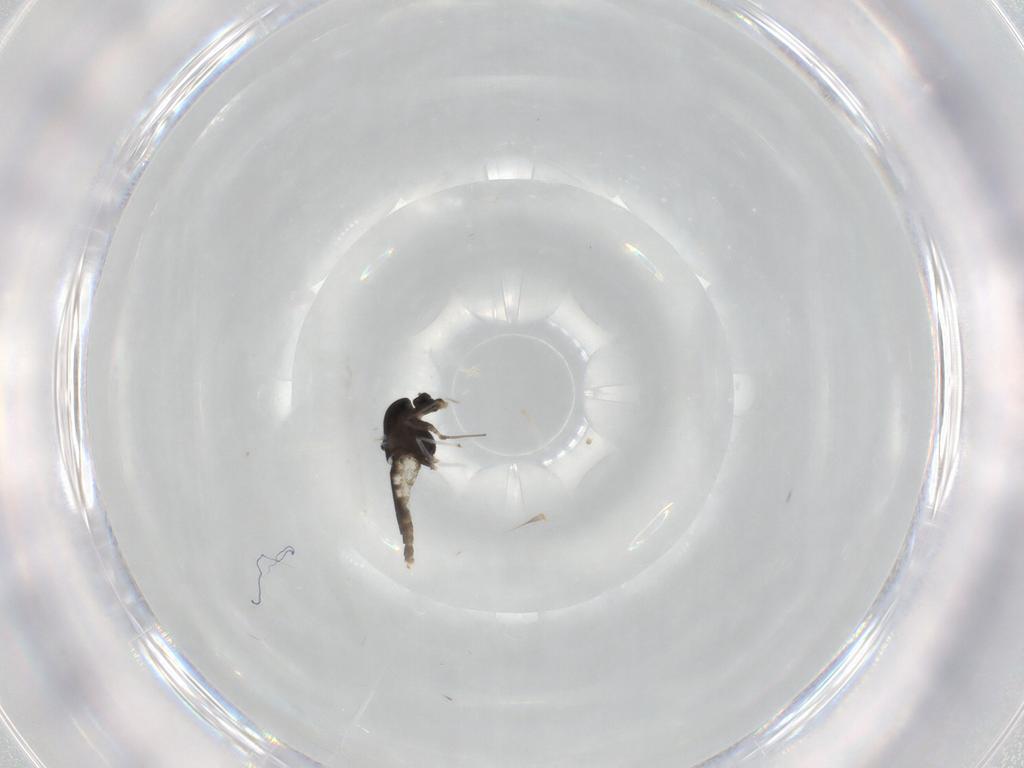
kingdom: Animalia
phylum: Arthropoda
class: Insecta
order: Diptera
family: Chironomidae
